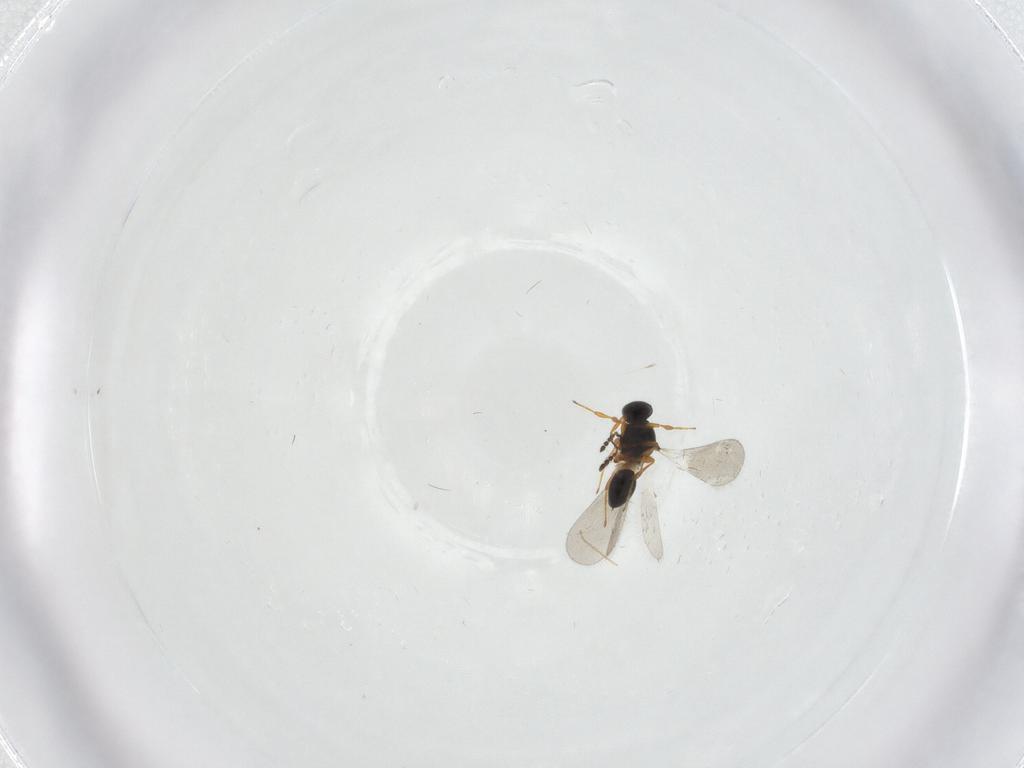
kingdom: Animalia
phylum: Arthropoda
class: Insecta
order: Hymenoptera
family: Platygastridae
